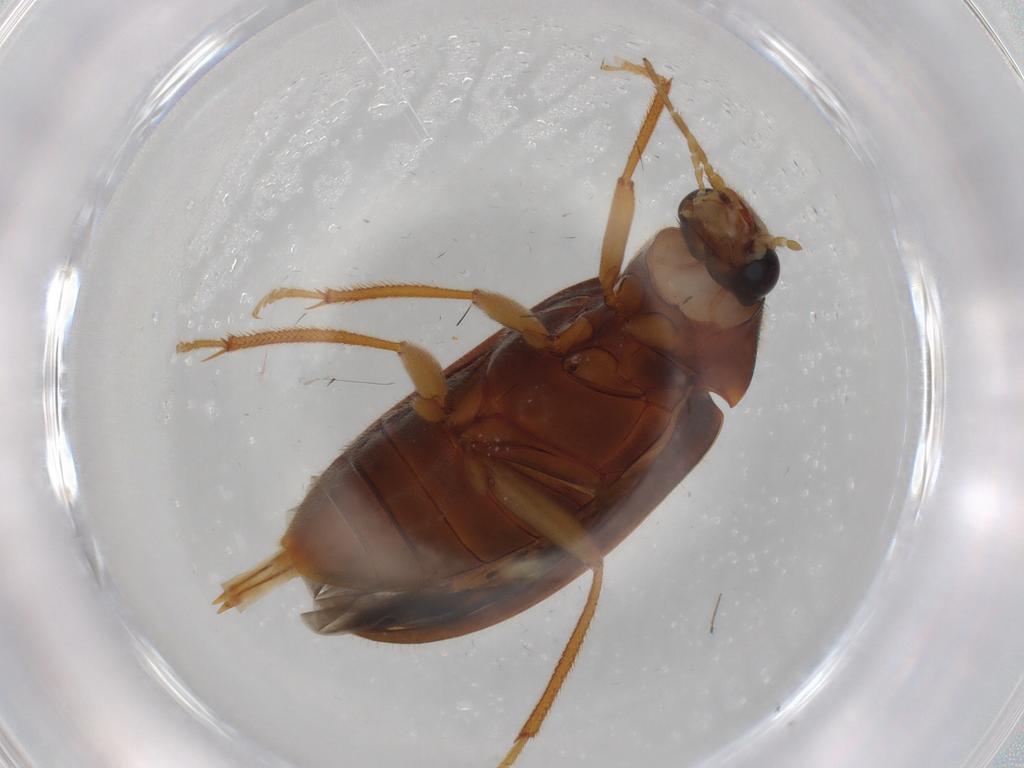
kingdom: Animalia
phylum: Arthropoda
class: Insecta
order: Coleoptera
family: Ptilodactylidae
